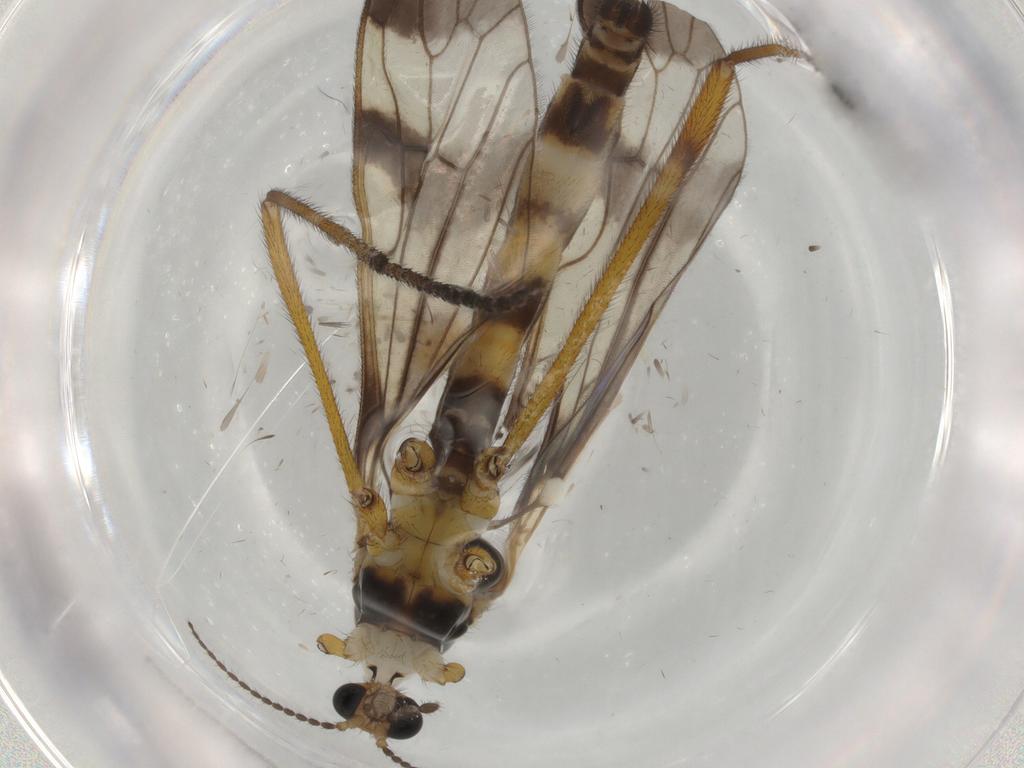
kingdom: Animalia
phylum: Arthropoda
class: Insecta
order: Diptera
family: Limoniidae
